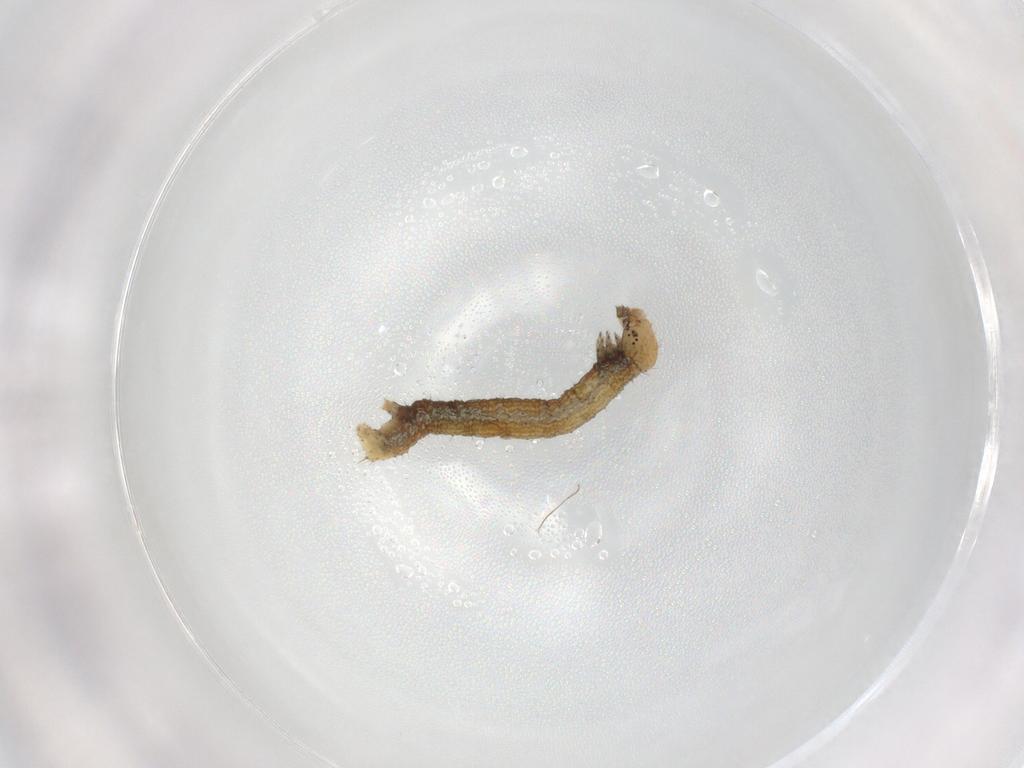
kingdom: Animalia
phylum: Arthropoda
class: Insecta
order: Lepidoptera
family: Geometridae
